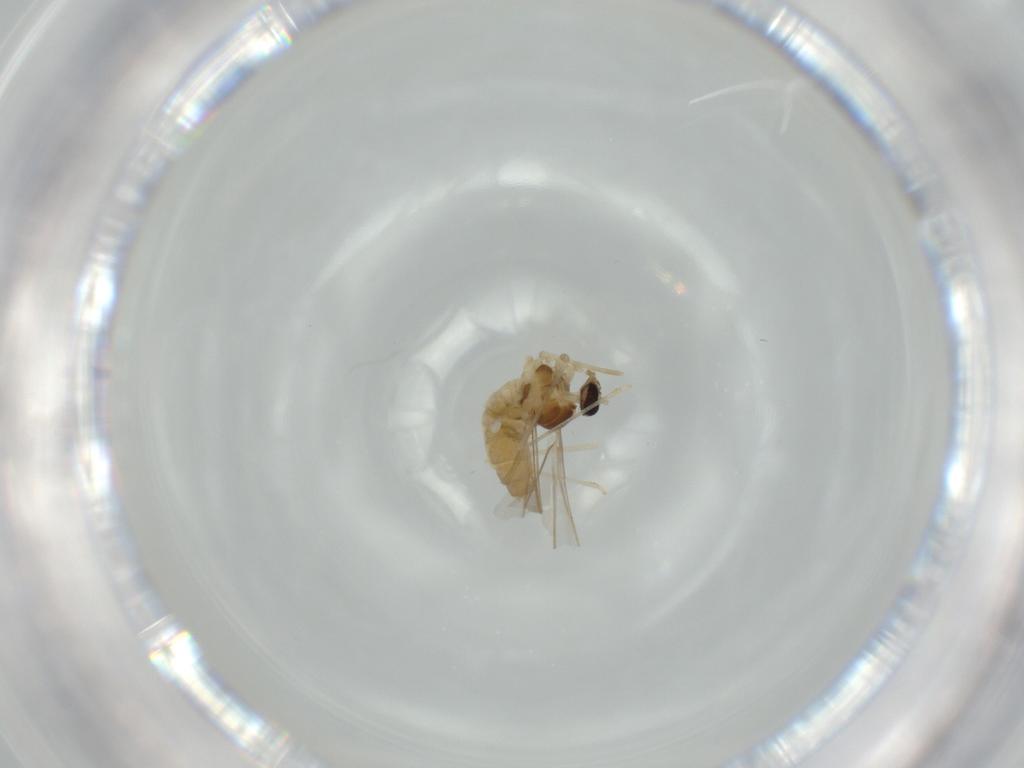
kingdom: Animalia
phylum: Arthropoda
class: Insecta
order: Diptera
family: Cecidomyiidae
